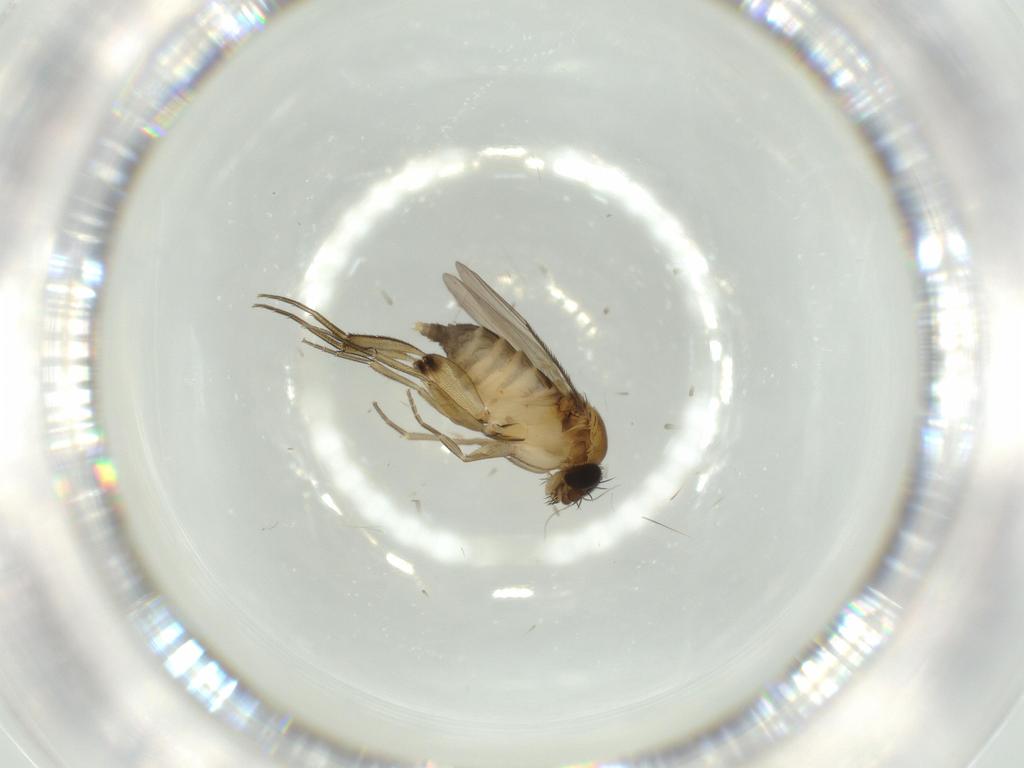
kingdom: Animalia
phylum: Arthropoda
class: Insecta
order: Diptera
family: Phoridae
